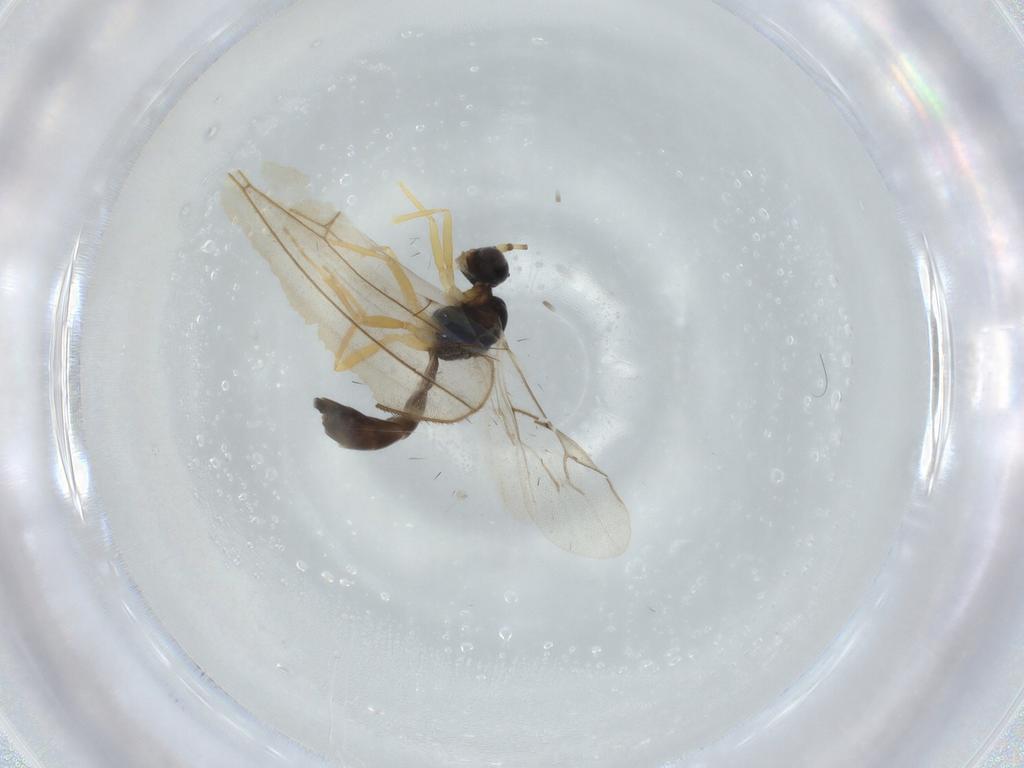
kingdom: Animalia
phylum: Arthropoda
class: Insecta
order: Hymenoptera
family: Braconidae
